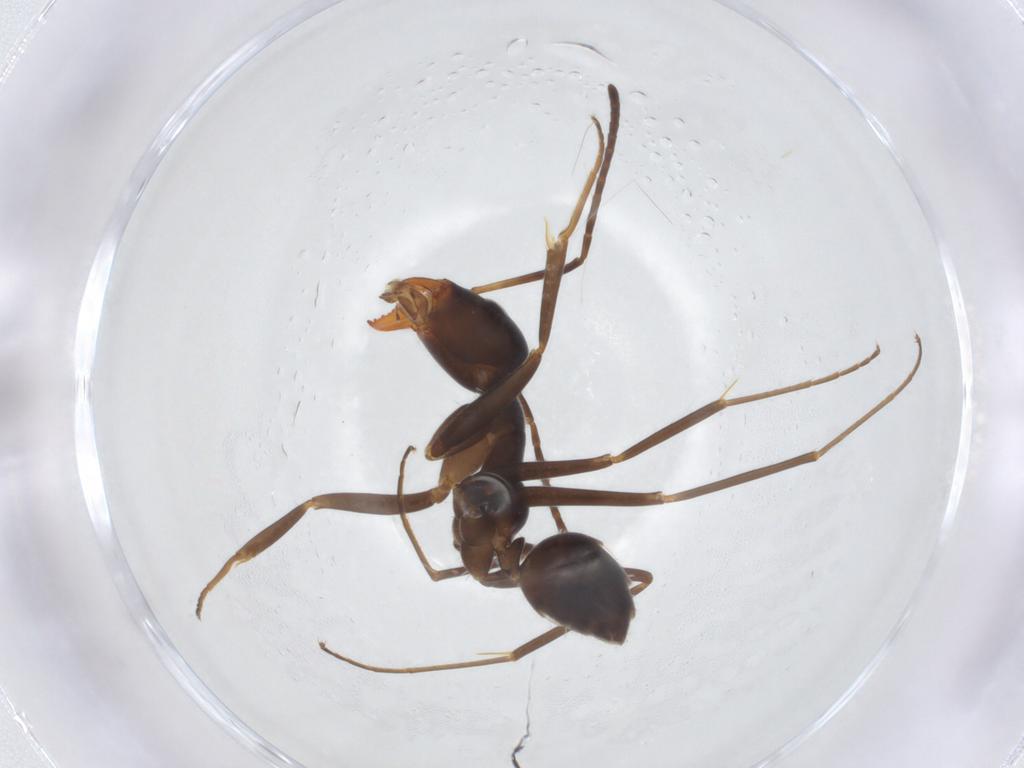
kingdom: Animalia
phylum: Arthropoda
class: Insecta
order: Hymenoptera
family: Formicidae
